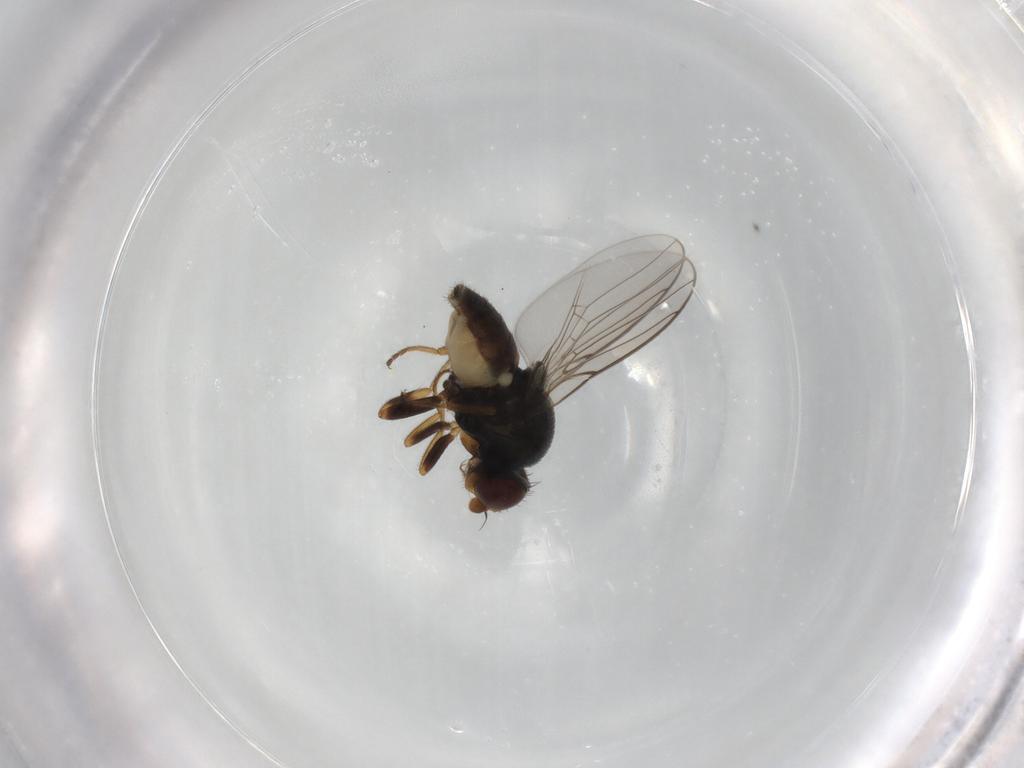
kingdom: Animalia
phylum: Arthropoda
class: Insecta
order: Diptera
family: Chloropidae
